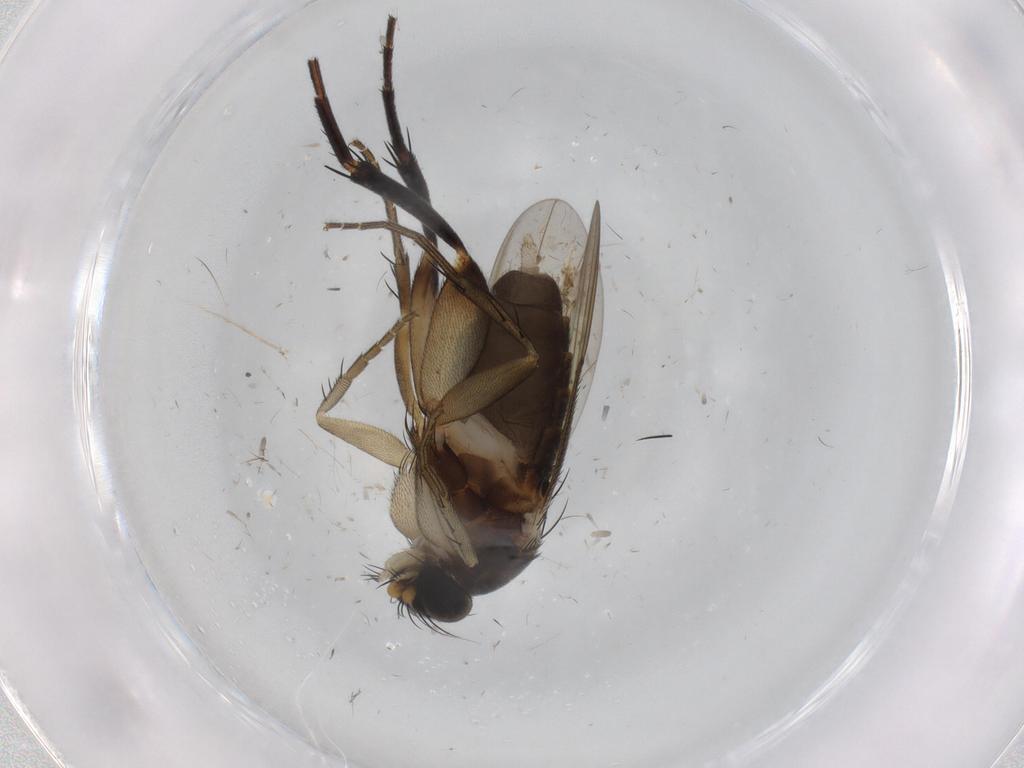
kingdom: Animalia
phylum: Arthropoda
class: Insecta
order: Diptera
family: Phoridae
